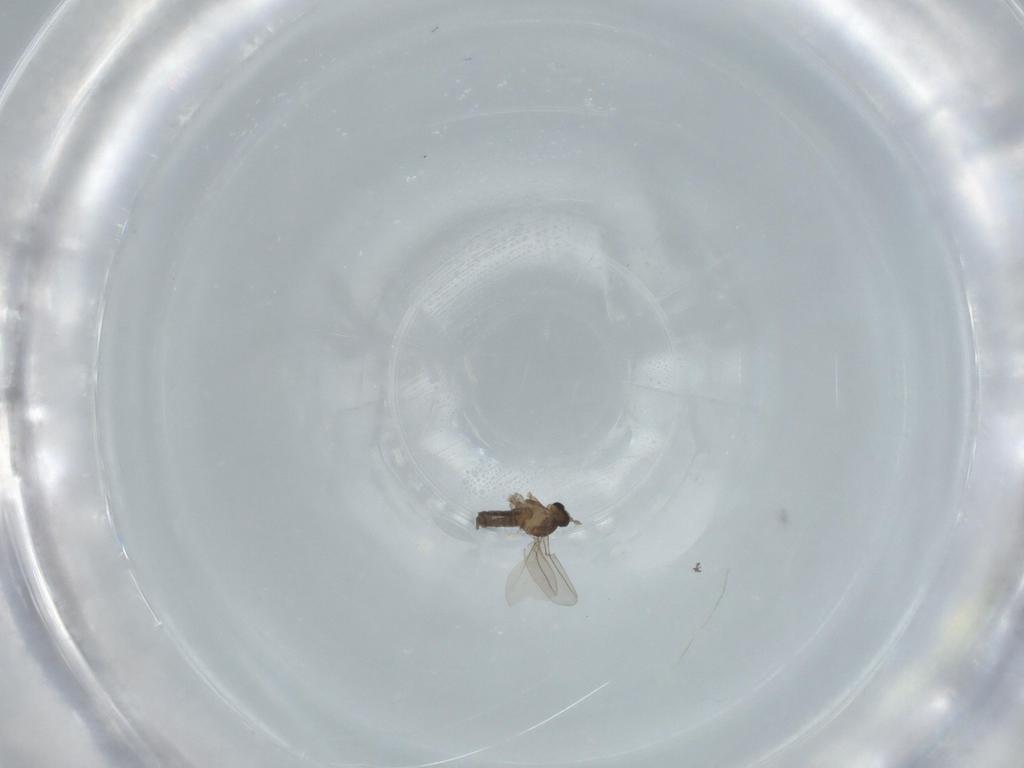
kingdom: Animalia
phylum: Arthropoda
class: Insecta
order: Diptera
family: Cecidomyiidae
